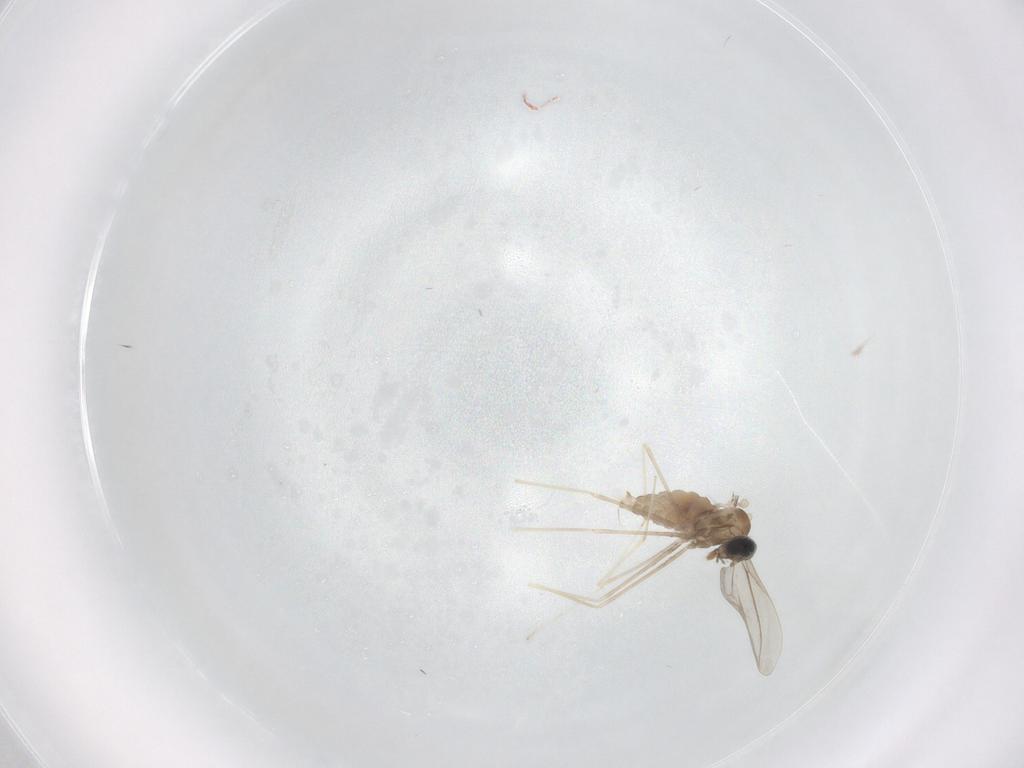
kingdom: Animalia
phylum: Arthropoda
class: Insecta
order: Diptera
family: Cecidomyiidae
